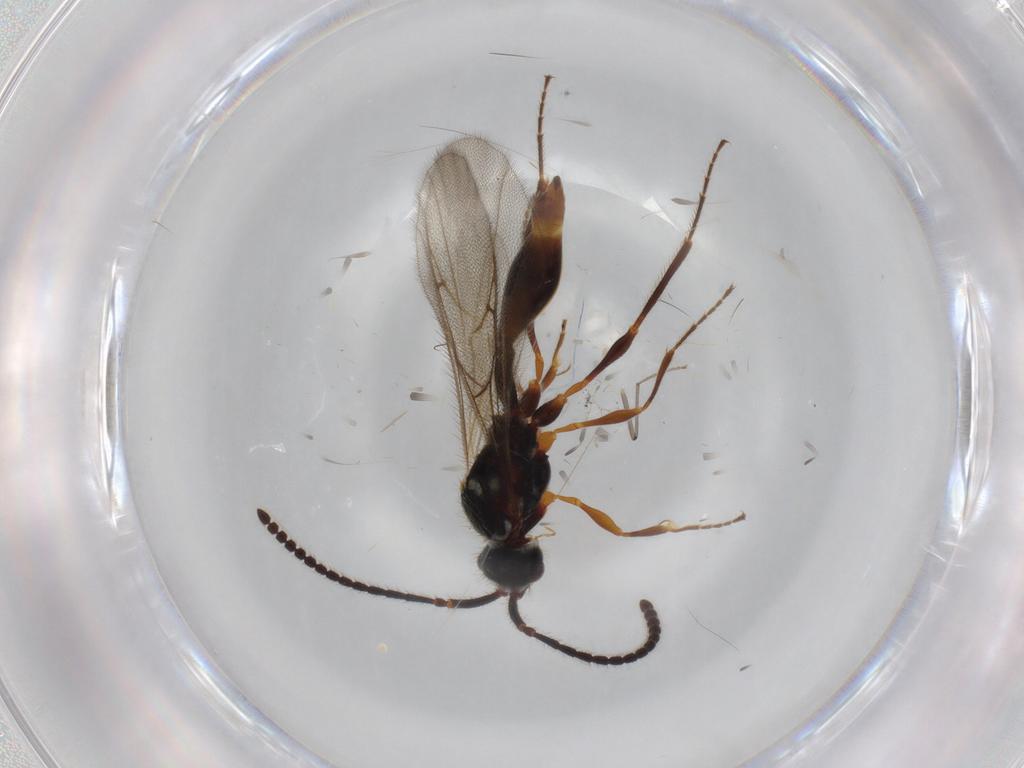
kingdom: Animalia
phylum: Arthropoda
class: Insecta
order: Hymenoptera
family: Diapriidae
